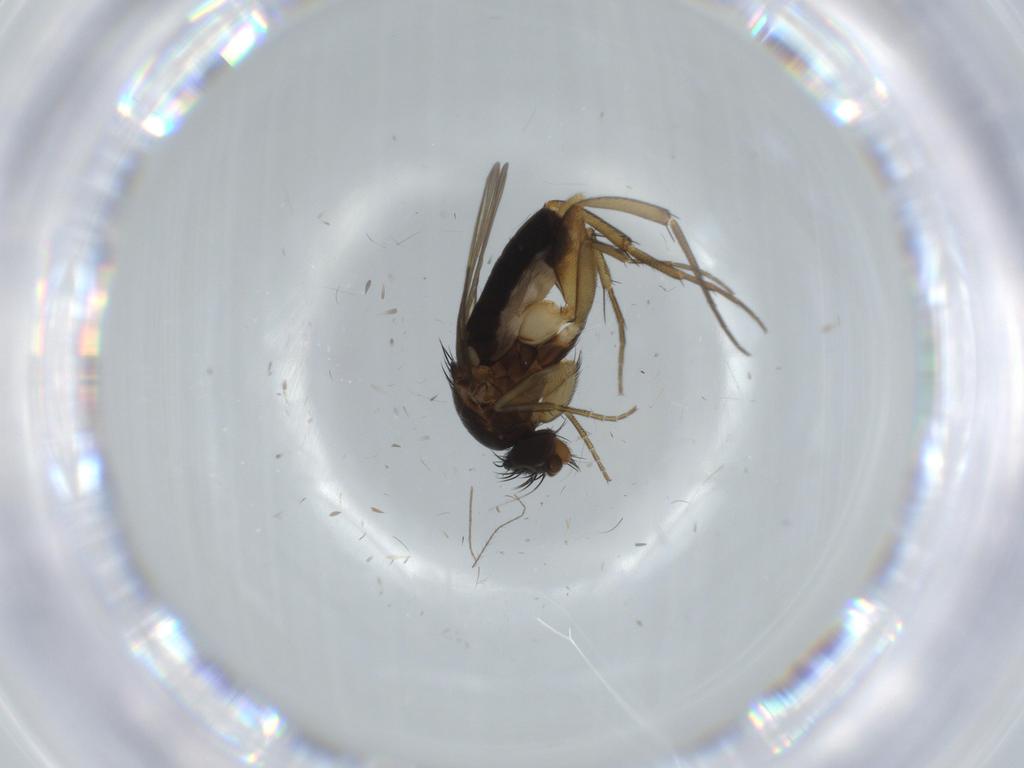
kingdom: Animalia
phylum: Arthropoda
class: Insecta
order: Diptera
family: Phoridae
